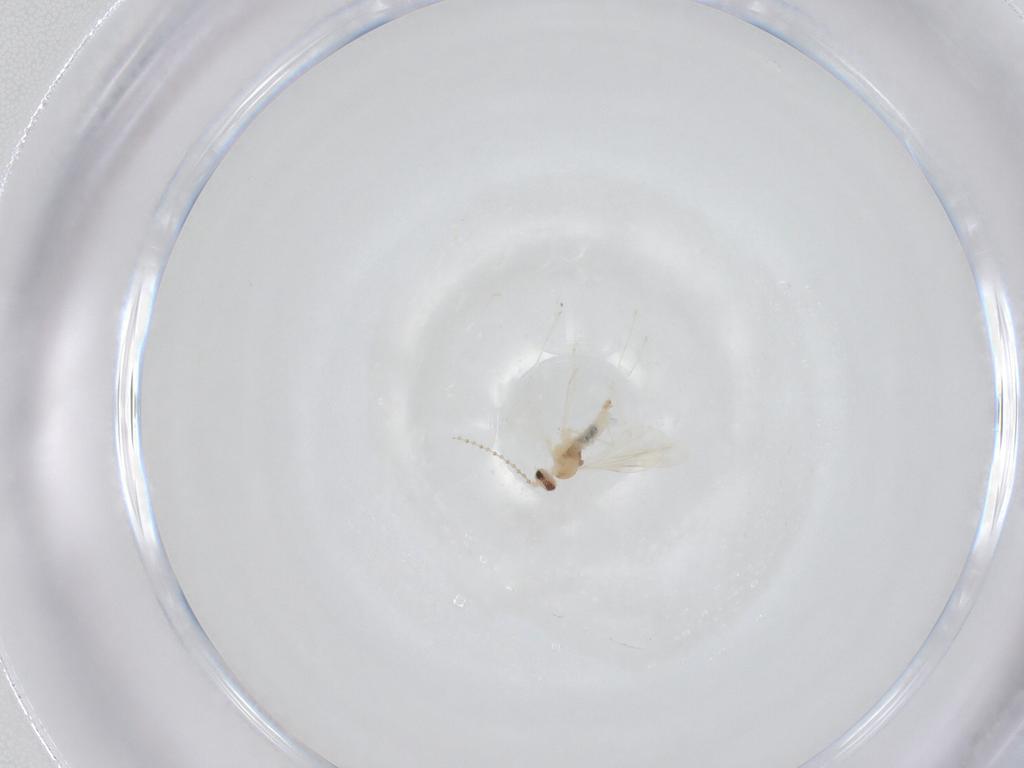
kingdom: Animalia
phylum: Arthropoda
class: Insecta
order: Diptera
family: Cecidomyiidae
